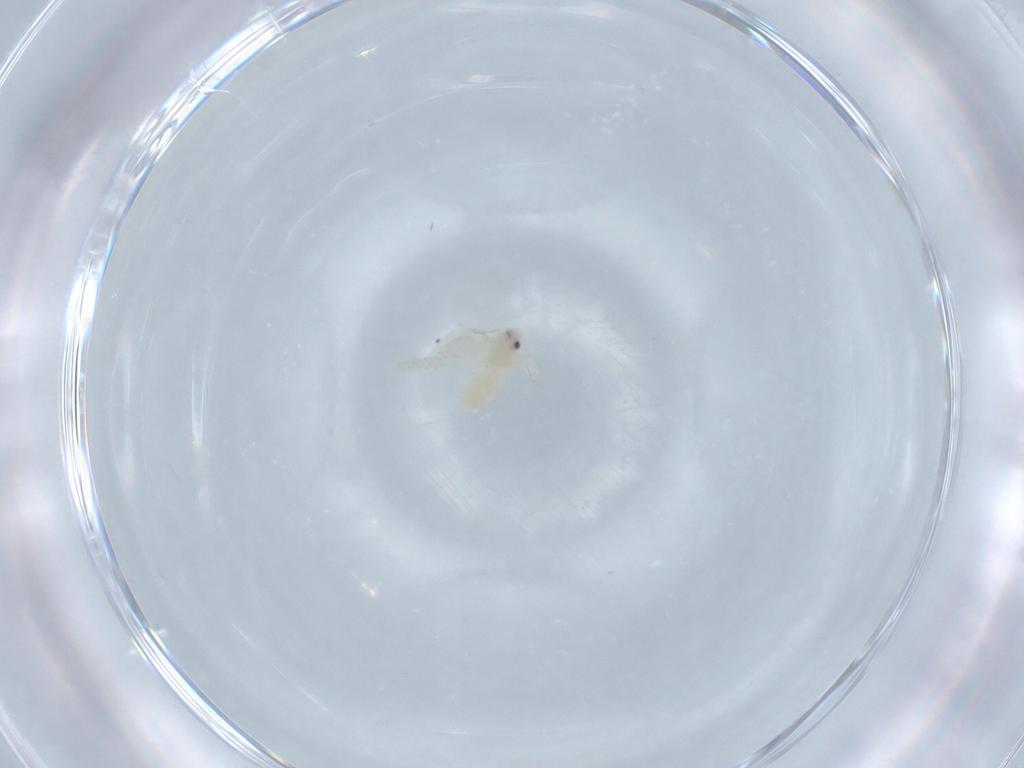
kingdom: Animalia
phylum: Arthropoda
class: Insecta
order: Hemiptera
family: Aleyrodidae
